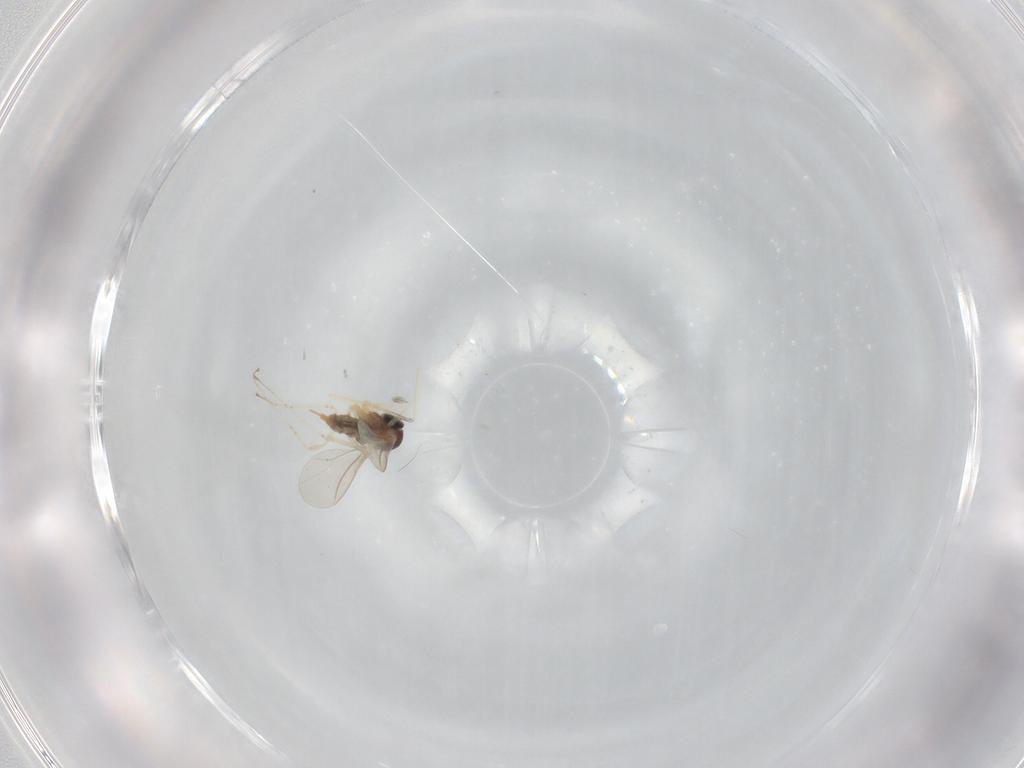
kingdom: Animalia
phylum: Arthropoda
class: Insecta
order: Diptera
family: Cecidomyiidae
